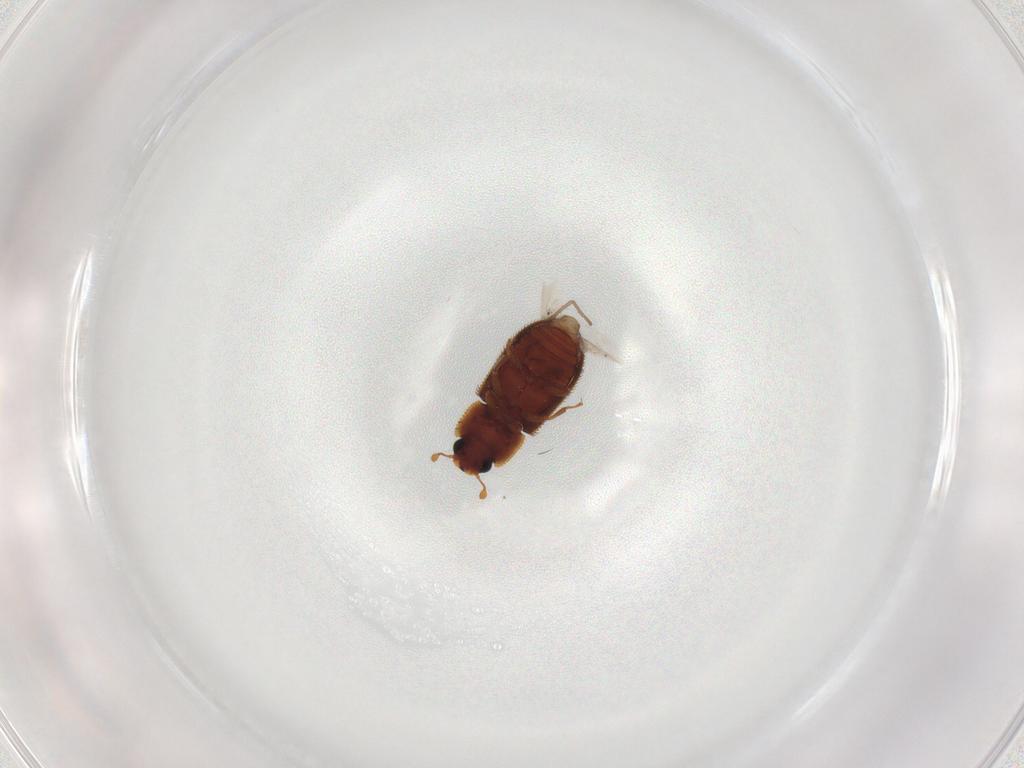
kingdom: Animalia
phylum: Arthropoda
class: Insecta
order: Coleoptera
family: Zopheridae
